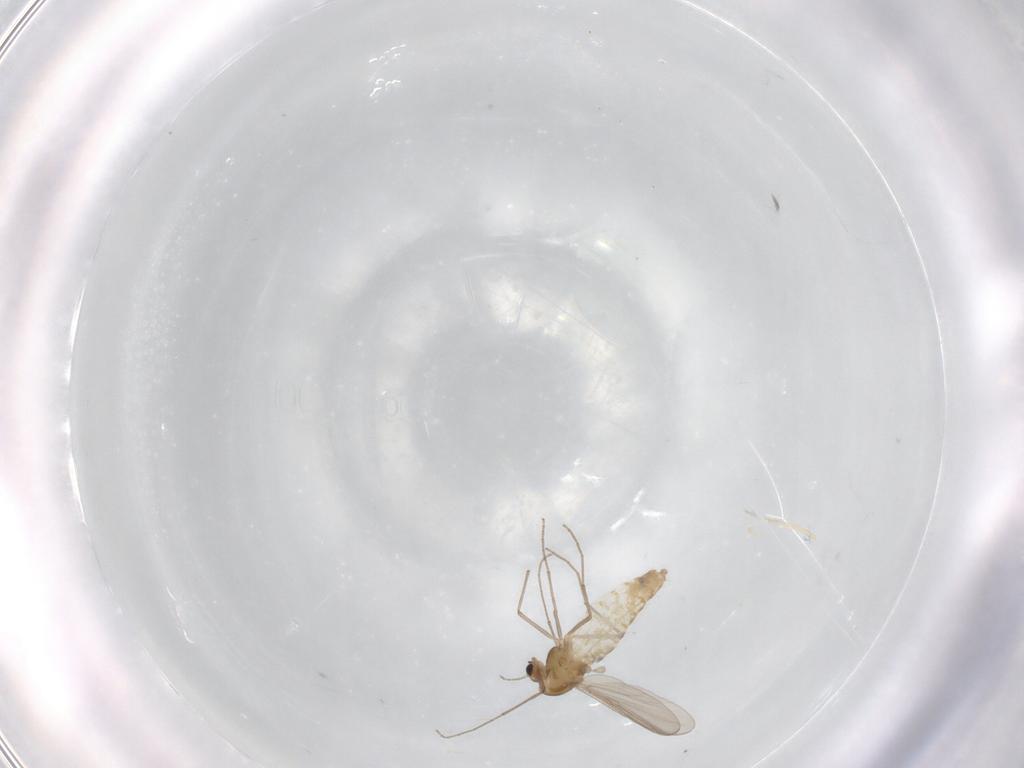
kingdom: Animalia
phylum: Arthropoda
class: Insecta
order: Diptera
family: Chironomidae
